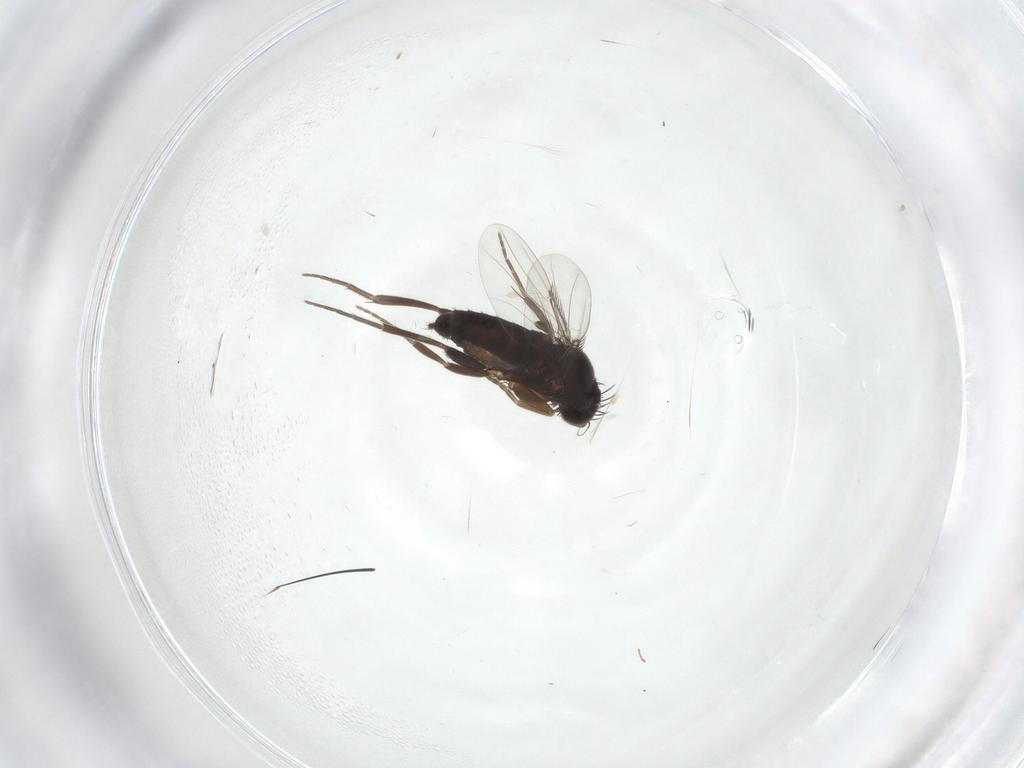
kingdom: Animalia
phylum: Arthropoda
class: Insecta
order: Diptera
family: Cecidomyiidae
